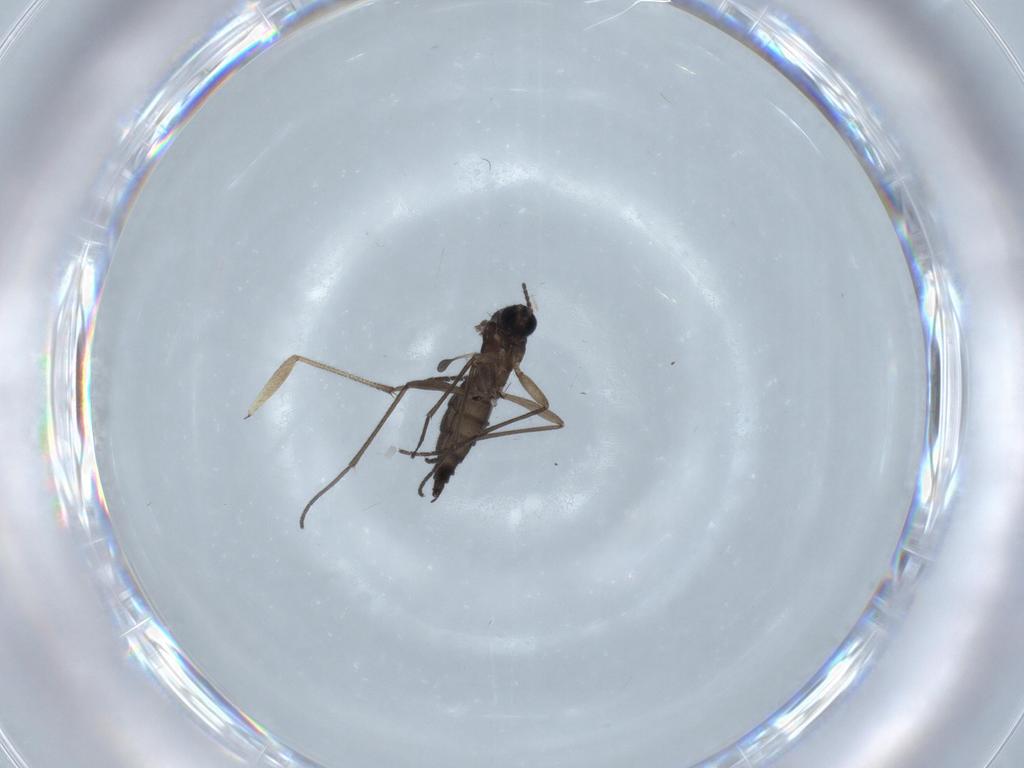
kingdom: Animalia
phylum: Arthropoda
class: Insecta
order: Diptera
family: Sciaridae
